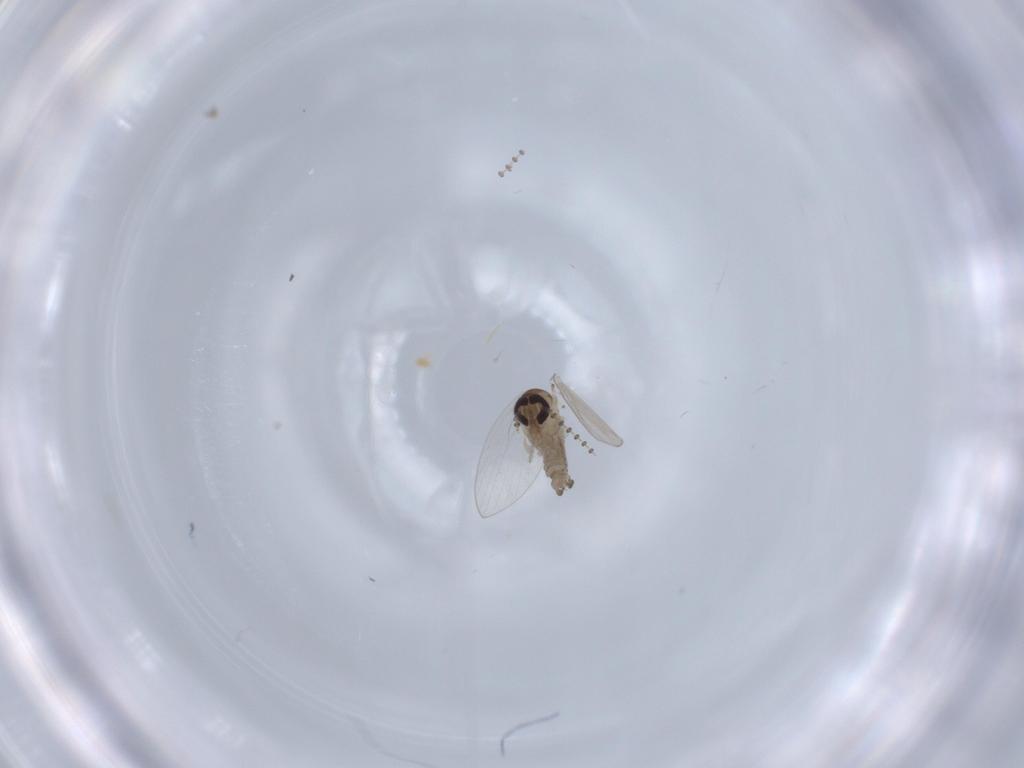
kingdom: Animalia
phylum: Arthropoda
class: Insecta
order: Diptera
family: Psychodidae
